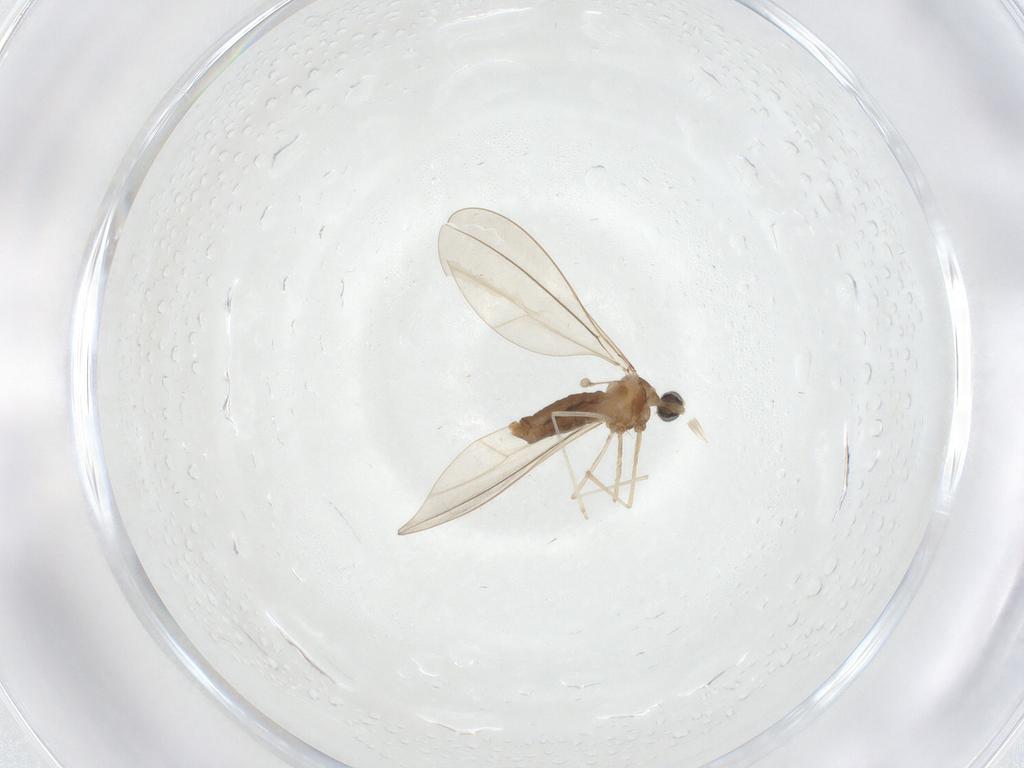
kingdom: Animalia
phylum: Arthropoda
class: Insecta
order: Diptera
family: Cecidomyiidae
